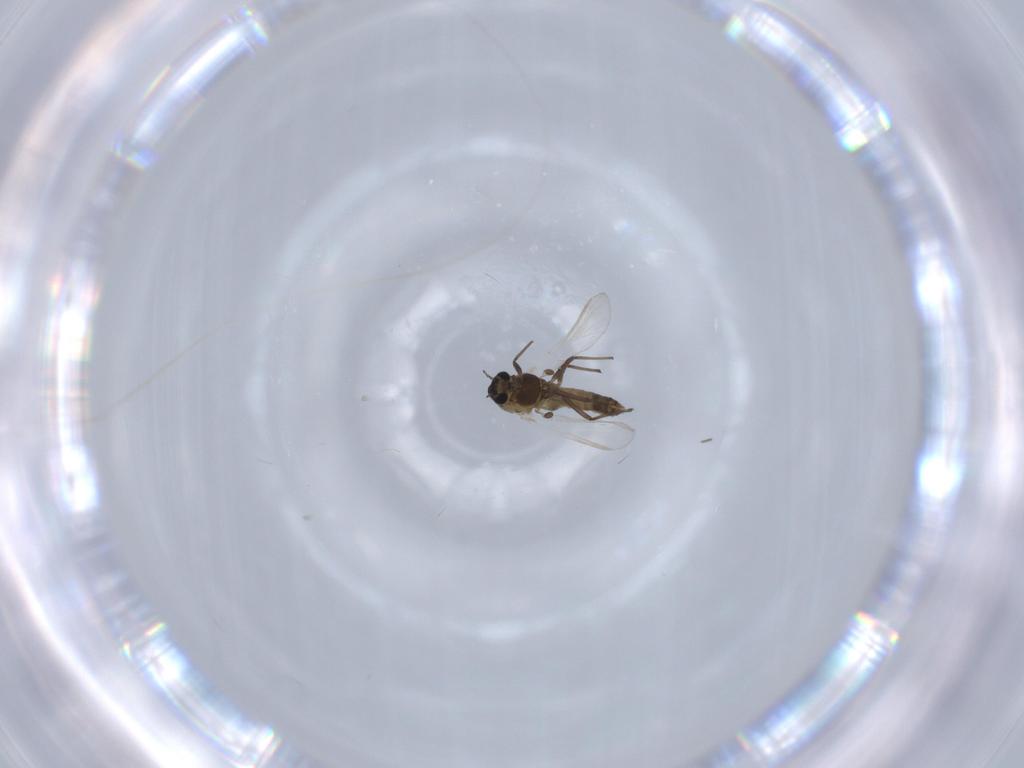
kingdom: Animalia
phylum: Arthropoda
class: Insecta
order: Diptera
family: Chironomidae
